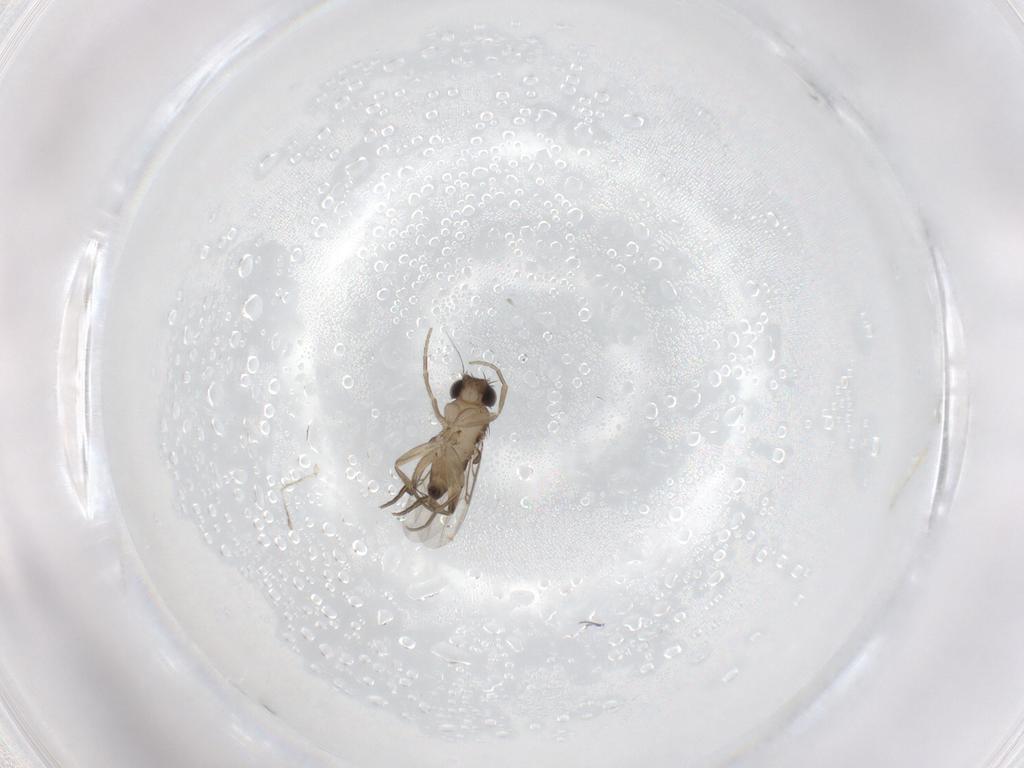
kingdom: Animalia
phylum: Arthropoda
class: Insecta
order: Diptera
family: Phoridae
